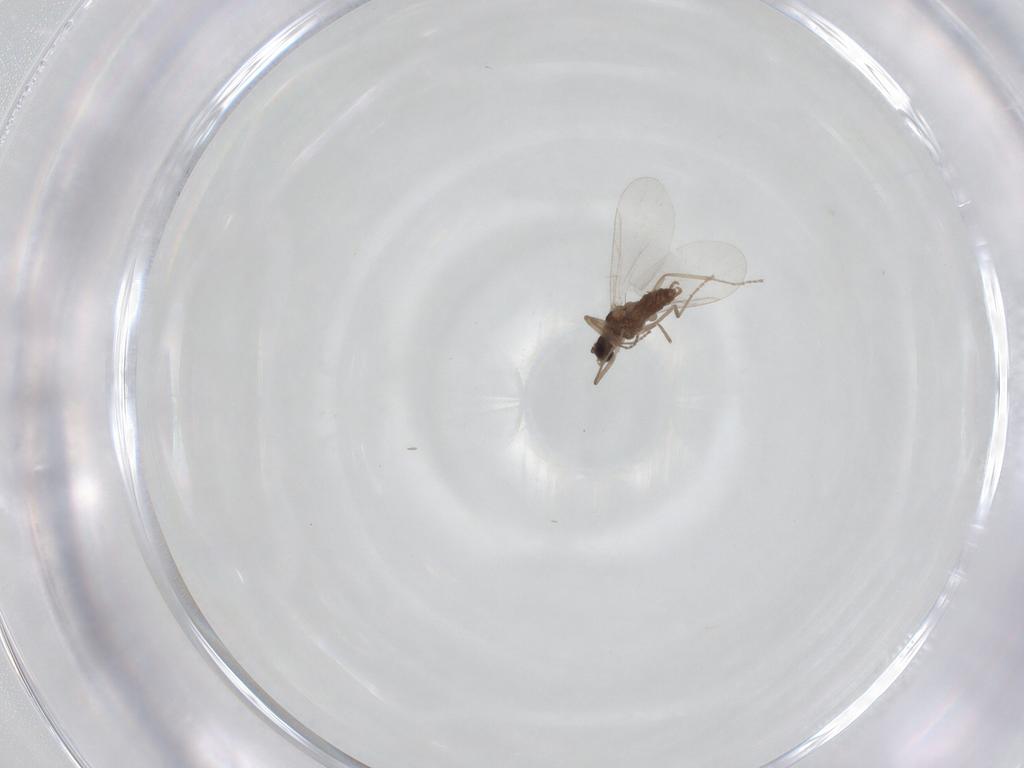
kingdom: Animalia
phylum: Arthropoda
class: Insecta
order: Diptera
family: Cecidomyiidae
